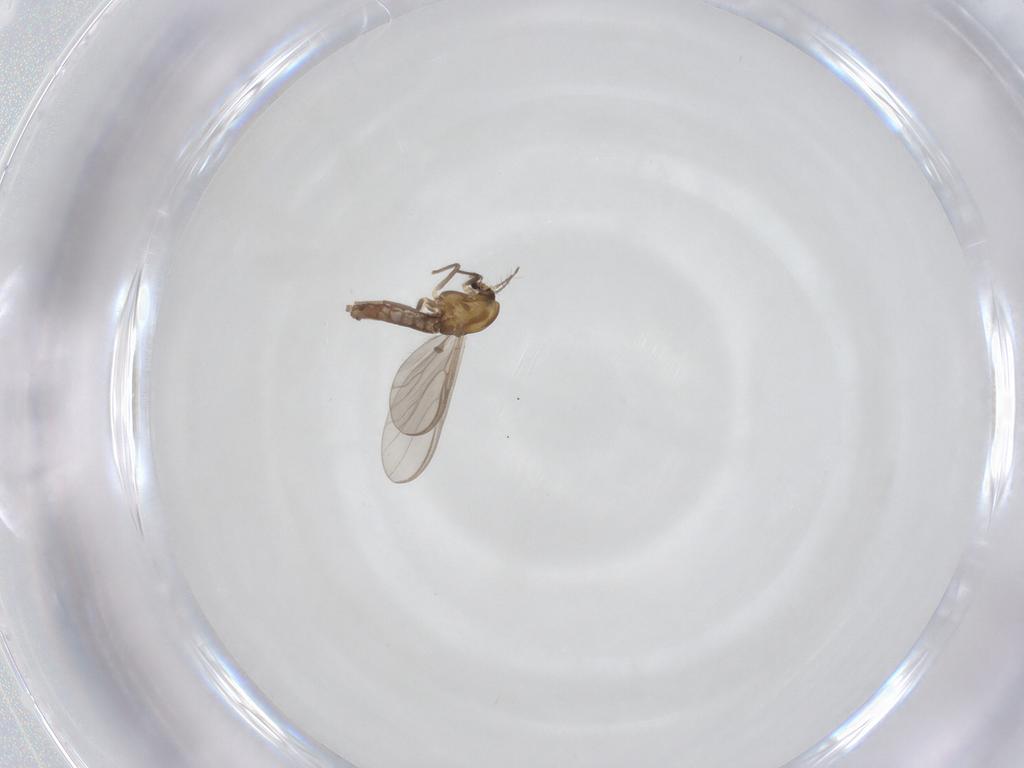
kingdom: Animalia
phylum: Arthropoda
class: Insecta
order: Diptera
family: Chironomidae
